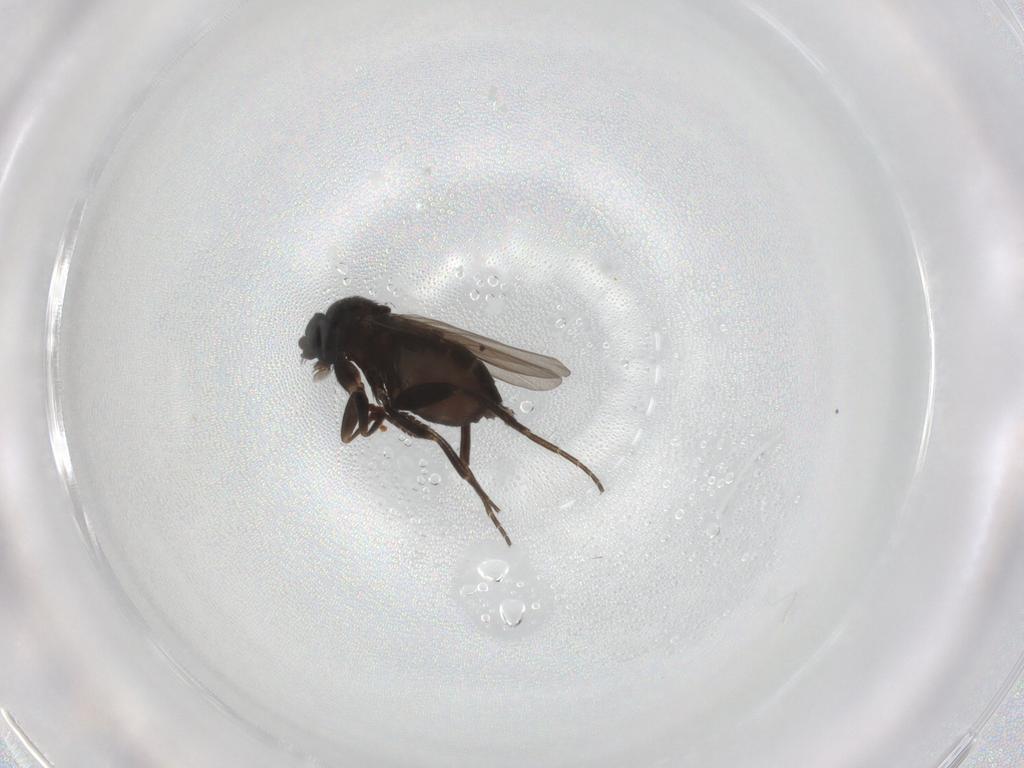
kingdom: Animalia
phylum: Arthropoda
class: Insecta
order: Diptera
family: Phoridae
